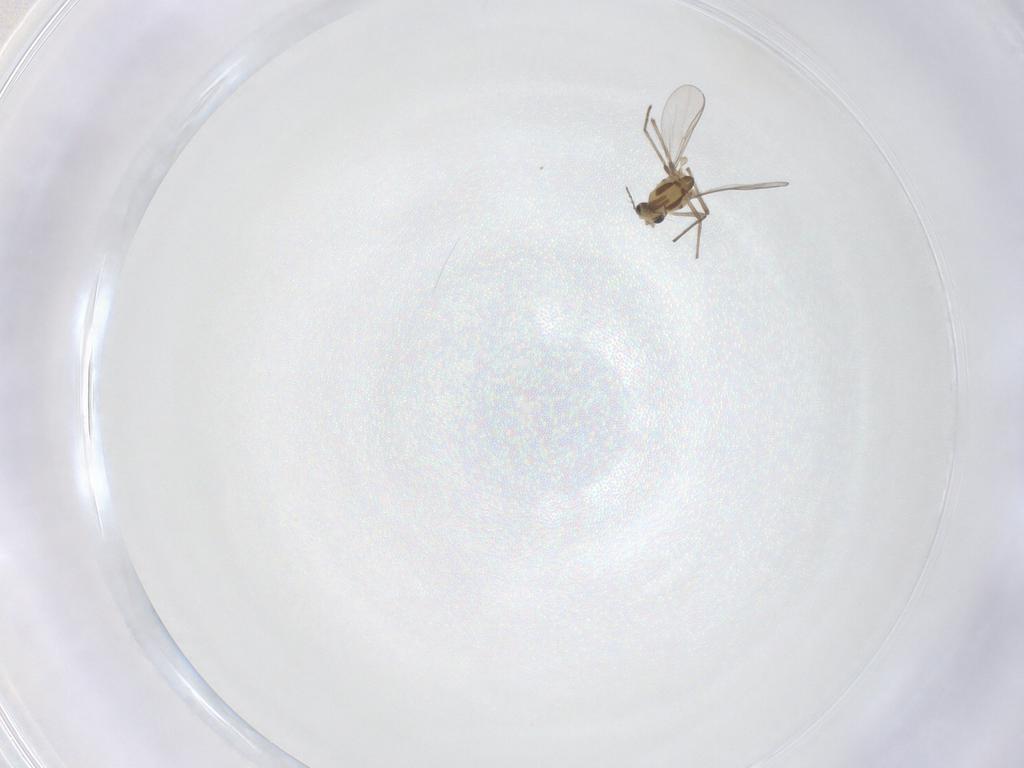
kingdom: Animalia
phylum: Arthropoda
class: Insecta
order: Diptera
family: Chironomidae
